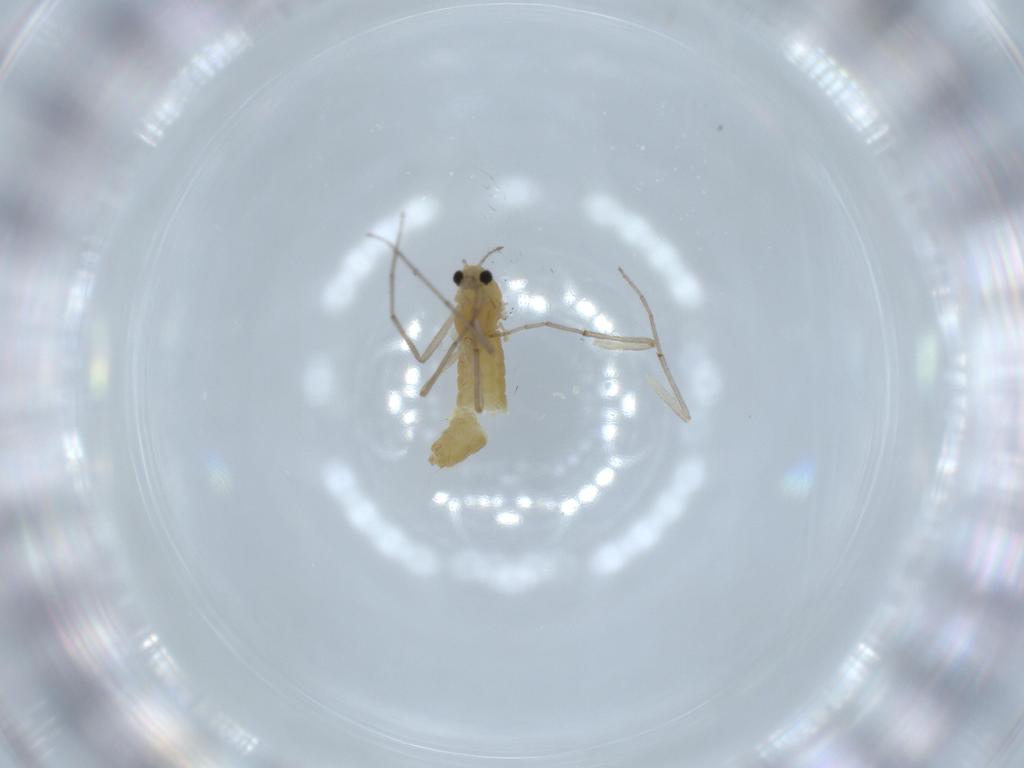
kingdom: Animalia
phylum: Arthropoda
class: Insecta
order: Diptera
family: Chironomidae
